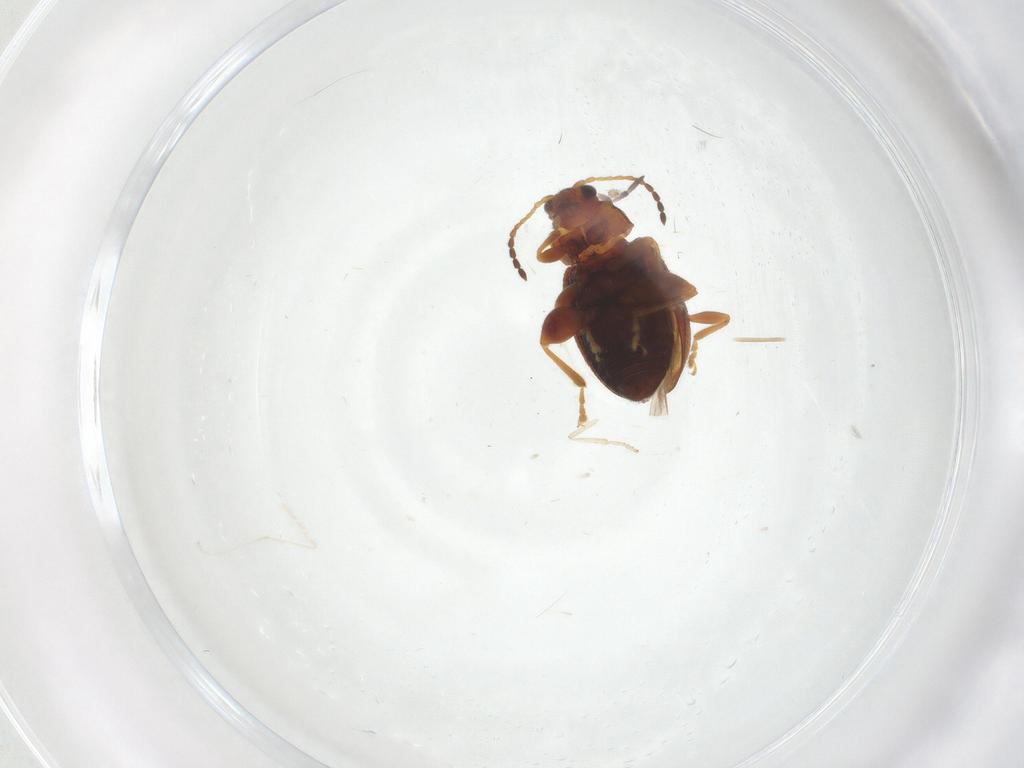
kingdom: Animalia
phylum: Arthropoda
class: Insecta
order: Coleoptera
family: Chrysomelidae
